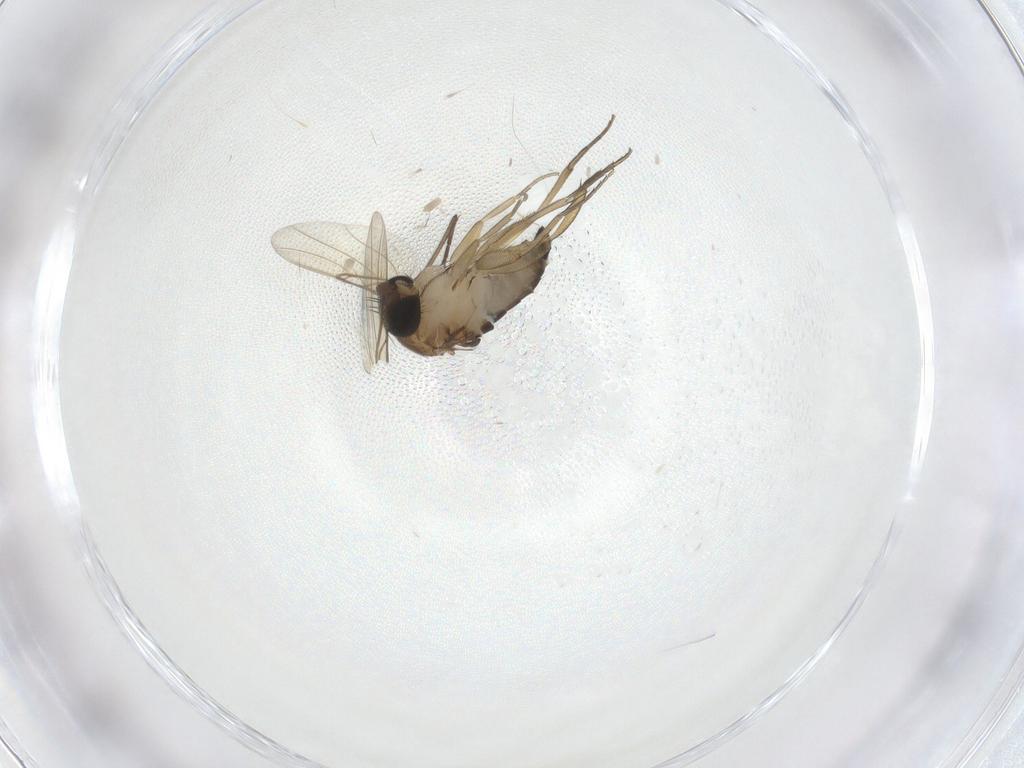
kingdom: Animalia
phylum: Arthropoda
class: Insecta
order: Diptera
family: Phoridae
